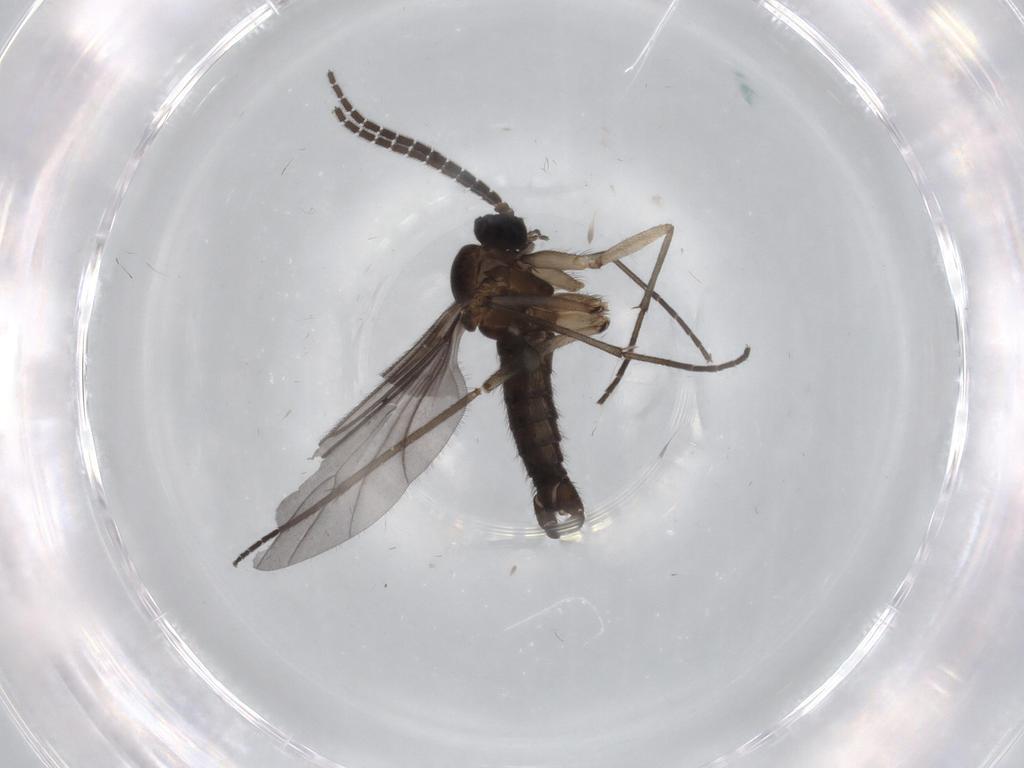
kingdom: Animalia
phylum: Arthropoda
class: Insecta
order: Diptera
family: Sciaridae
